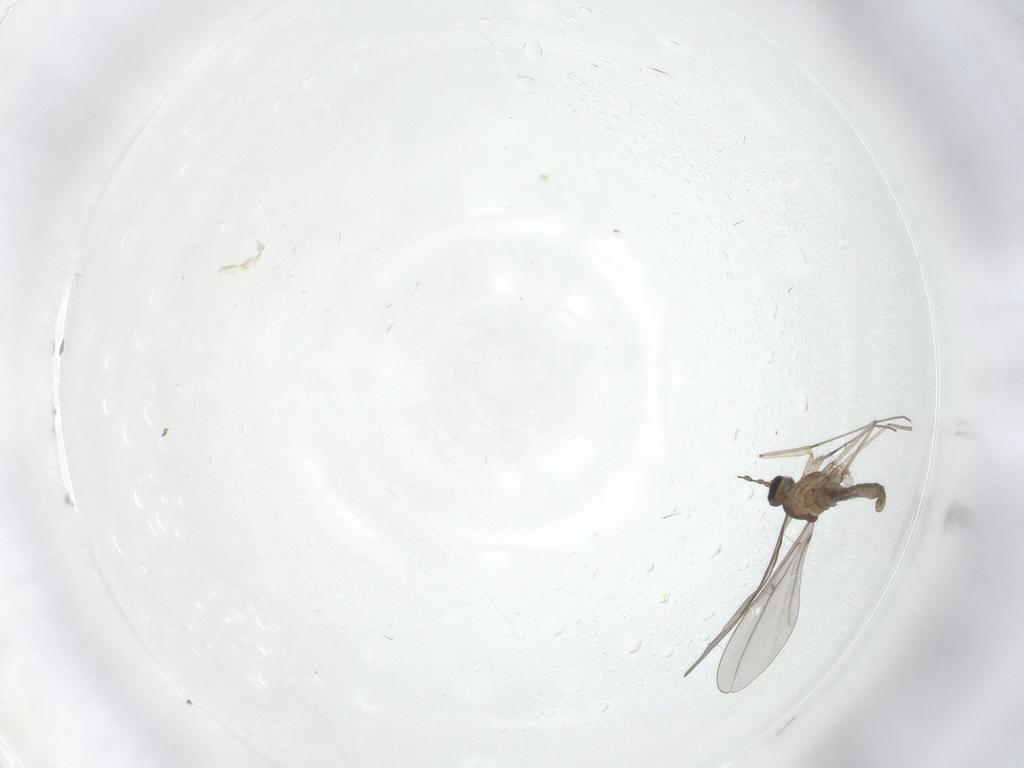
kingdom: Animalia
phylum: Arthropoda
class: Insecta
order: Diptera
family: Cecidomyiidae
